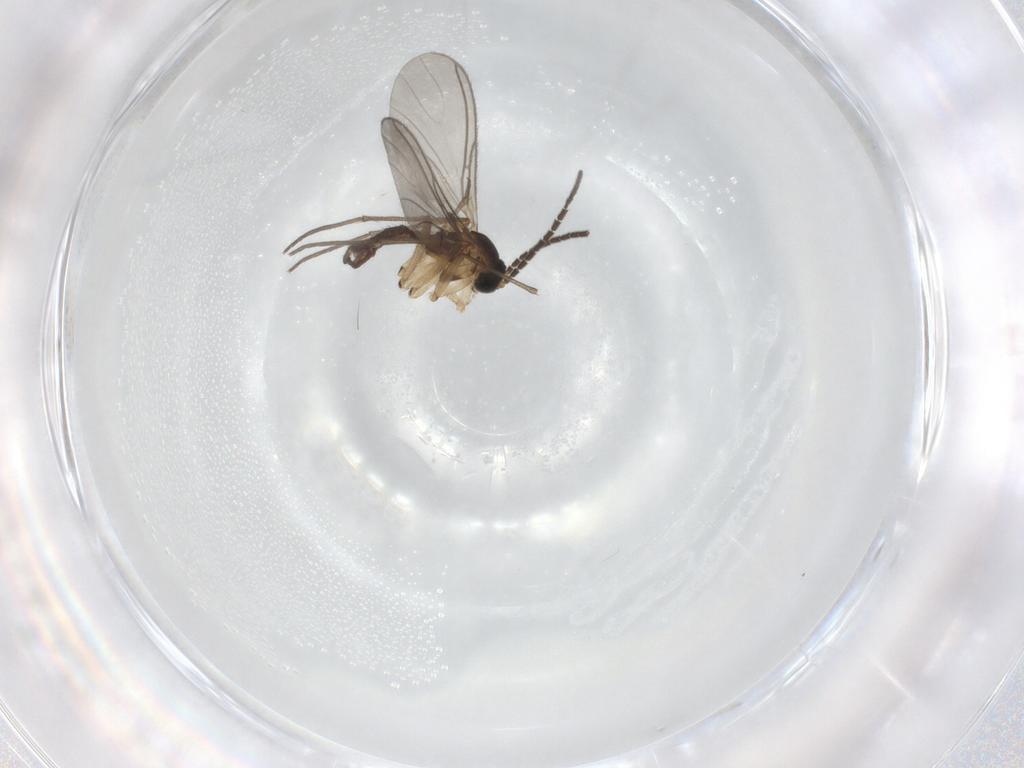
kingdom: Animalia
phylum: Arthropoda
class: Insecta
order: Diptera
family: Sciaridae
